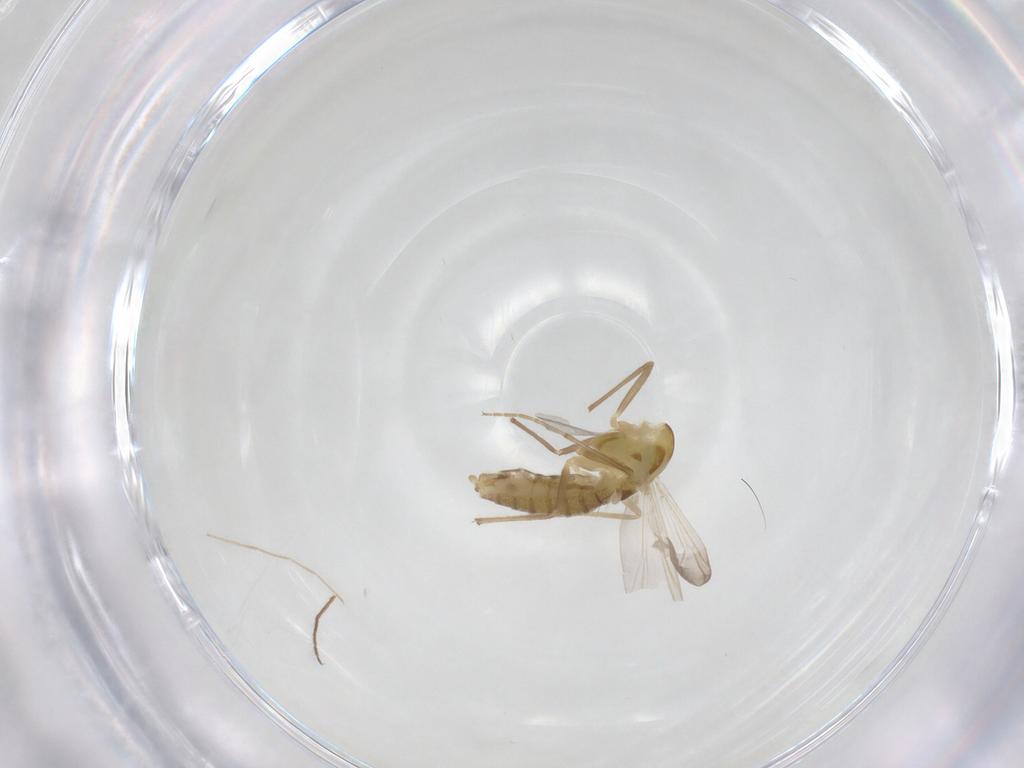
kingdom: Animalia
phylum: Arthropoda
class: Insecta
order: Diptera
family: Chironomidae
